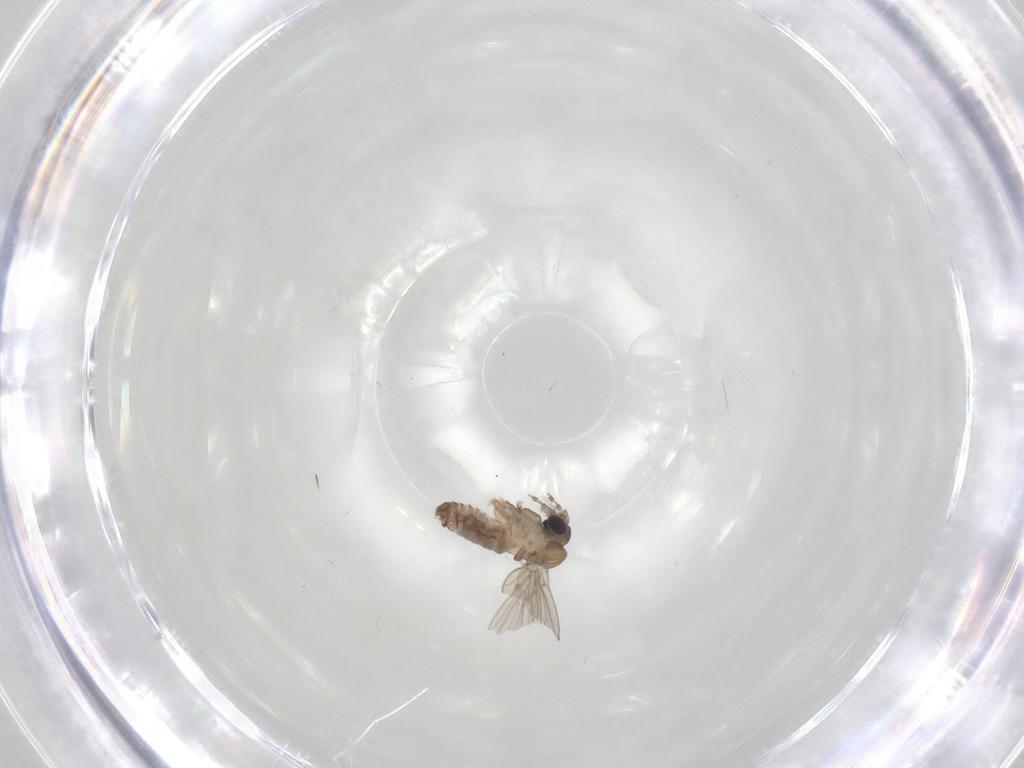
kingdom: Animalia
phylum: Arthropoda
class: Insecta
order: Diptera
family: Psychodidae
